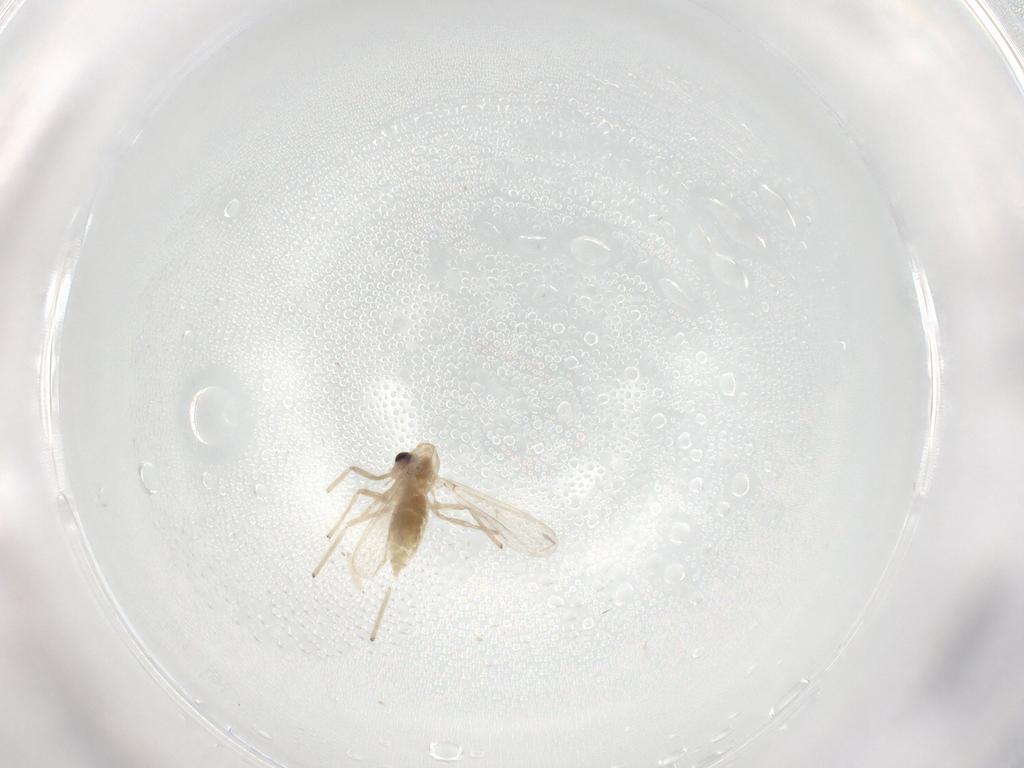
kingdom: Animalia
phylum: Arthropoda
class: Insecta
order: Diptera
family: Chironomidae
